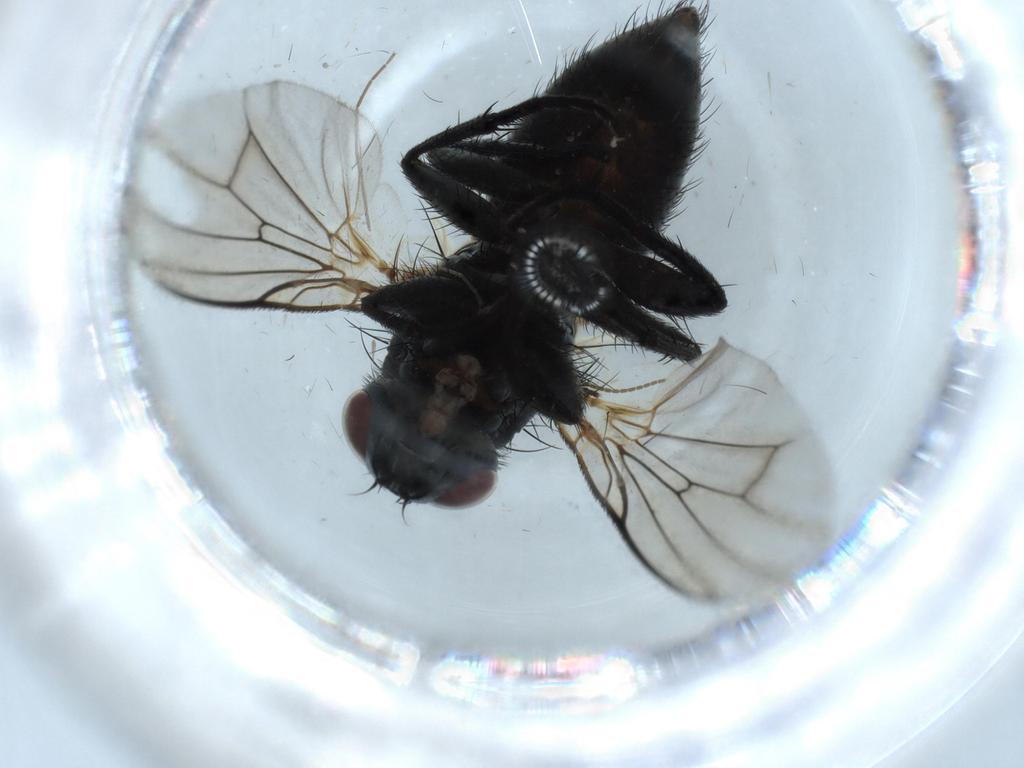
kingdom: Animalia
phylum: Arthropoda
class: Insecta
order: Diptera
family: Muscidae
